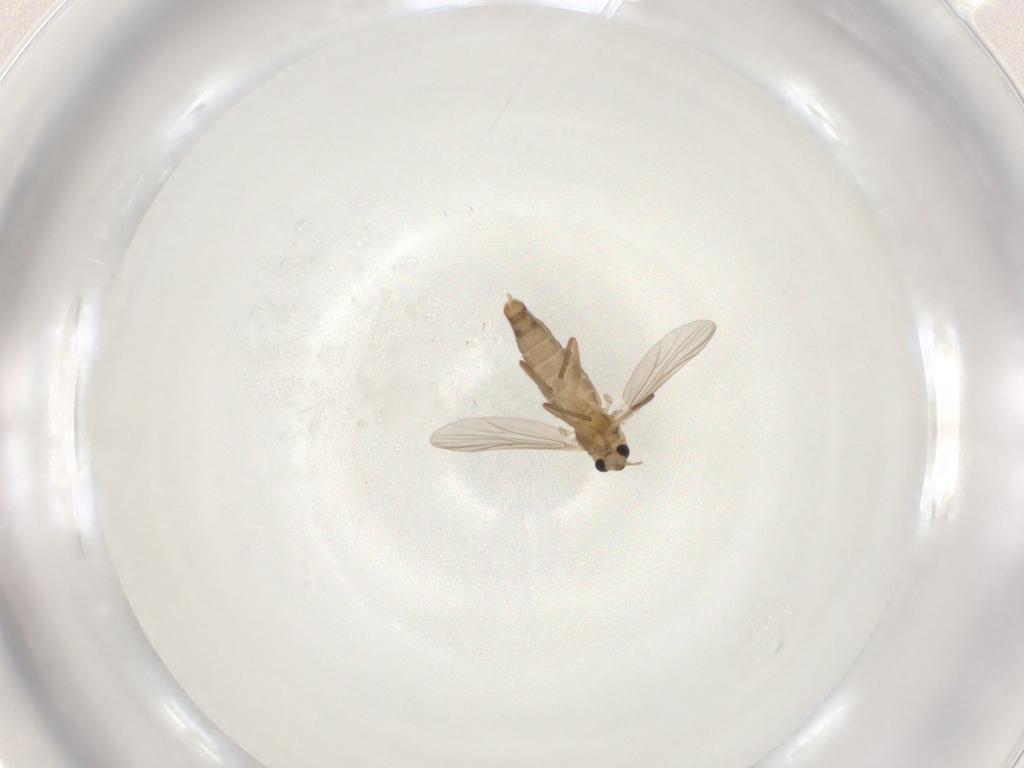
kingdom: Animalia
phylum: Arthropoda
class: Insecta
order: Diptera
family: Chironomidae
